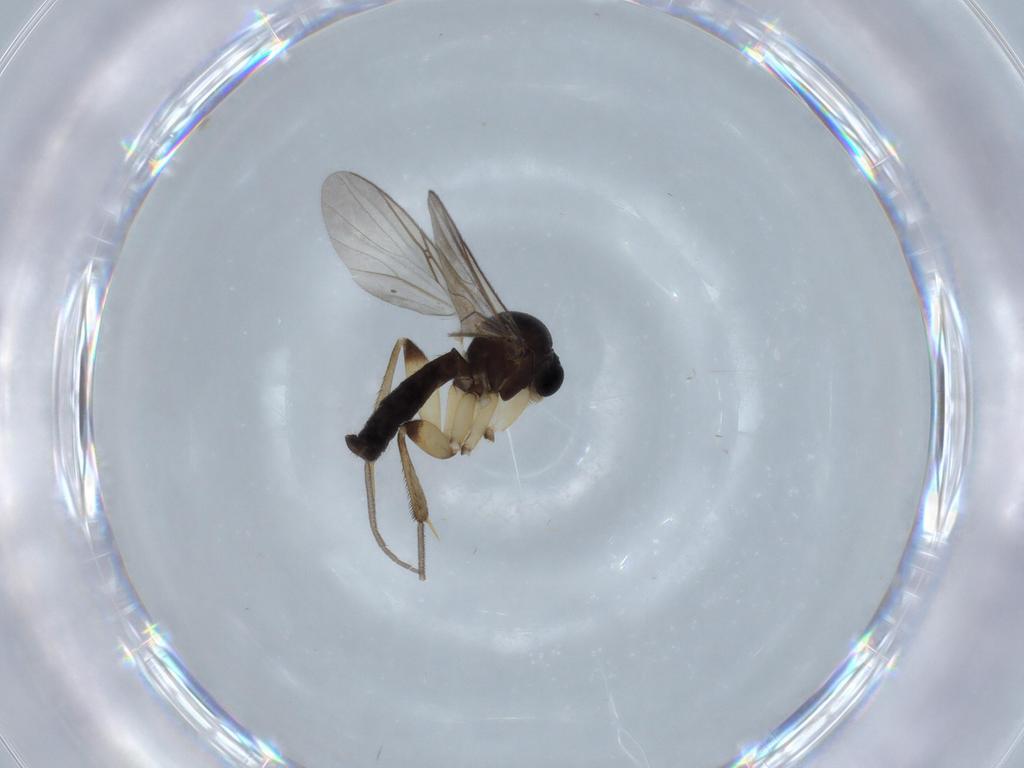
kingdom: Animalia
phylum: Arthropoda
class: Insecta
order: Diptera
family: Mycetophilidae
